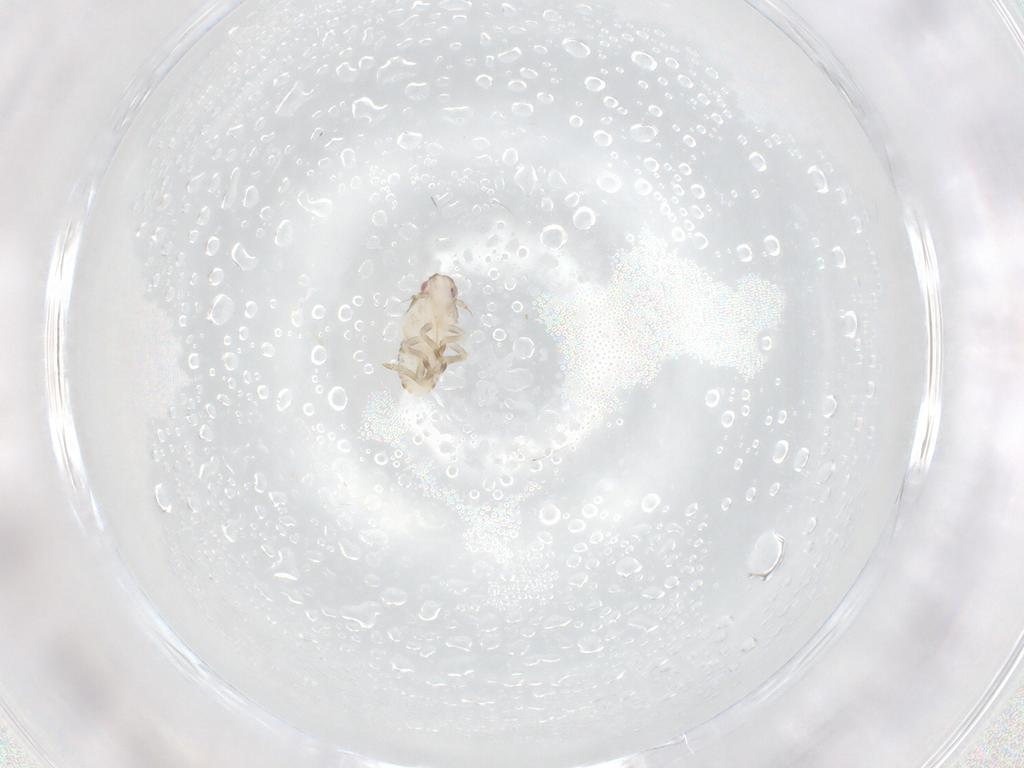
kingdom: Animalia
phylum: Arthropoda
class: Insecta
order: Hemiptera
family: Flatidae
